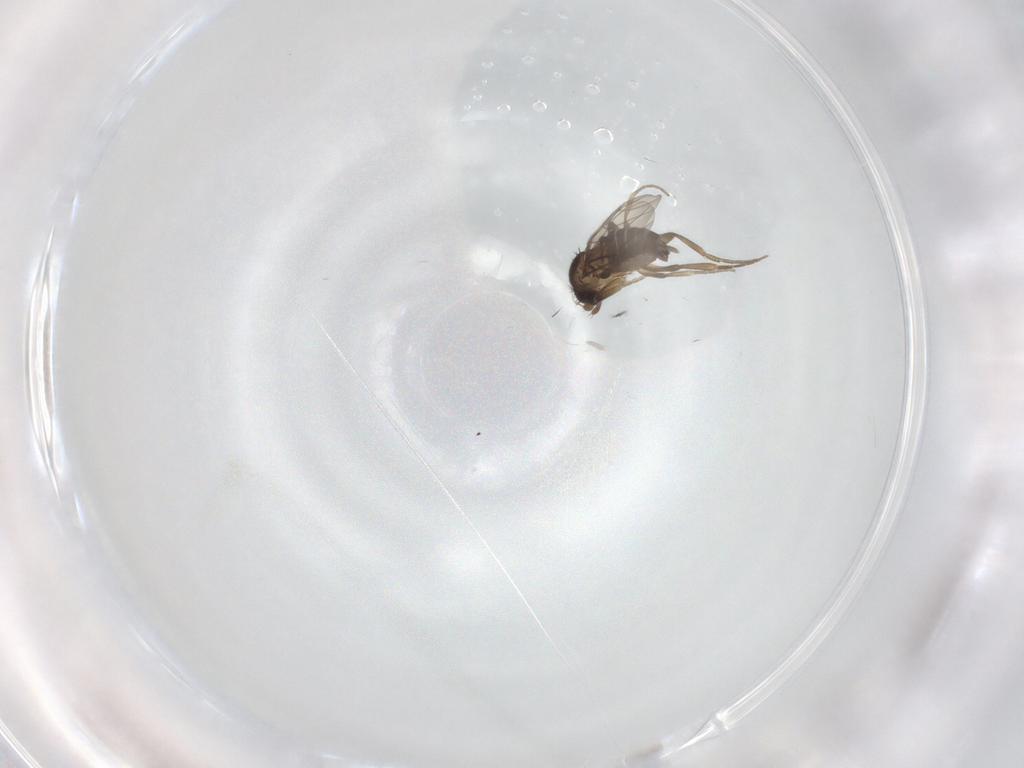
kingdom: Animalia
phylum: Arthropoda
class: Insecta
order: Diptera
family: Phoridae
